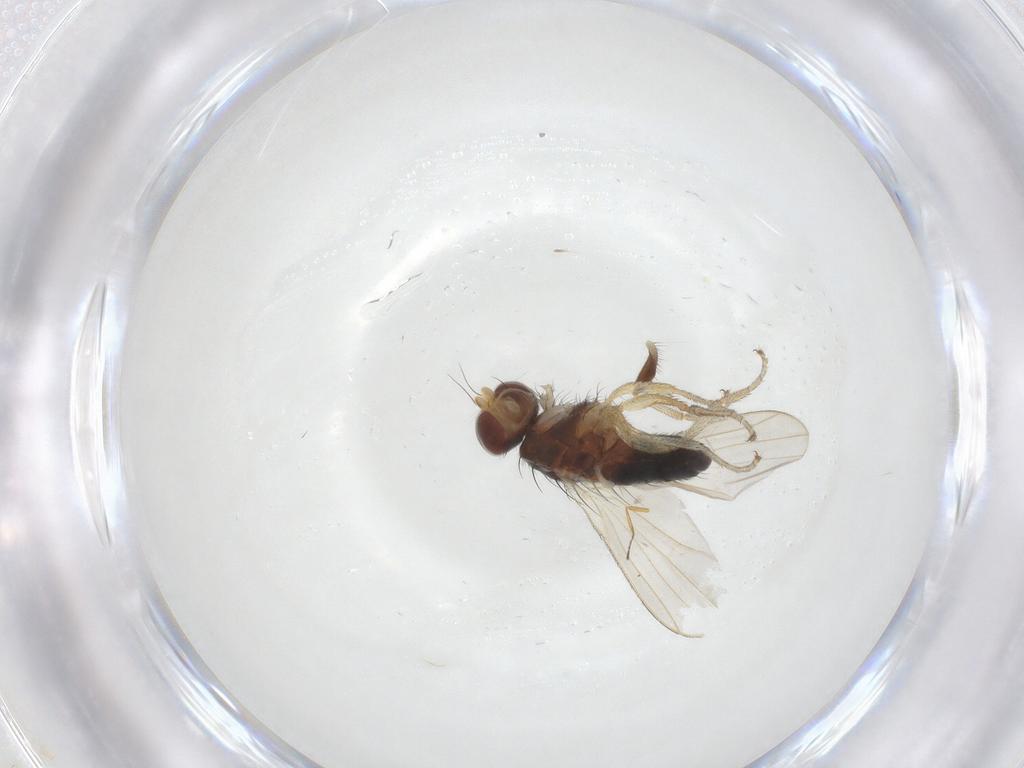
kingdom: Animalia
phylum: Arthropoda
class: Insecta
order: Diptera
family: Heleomyzidae
